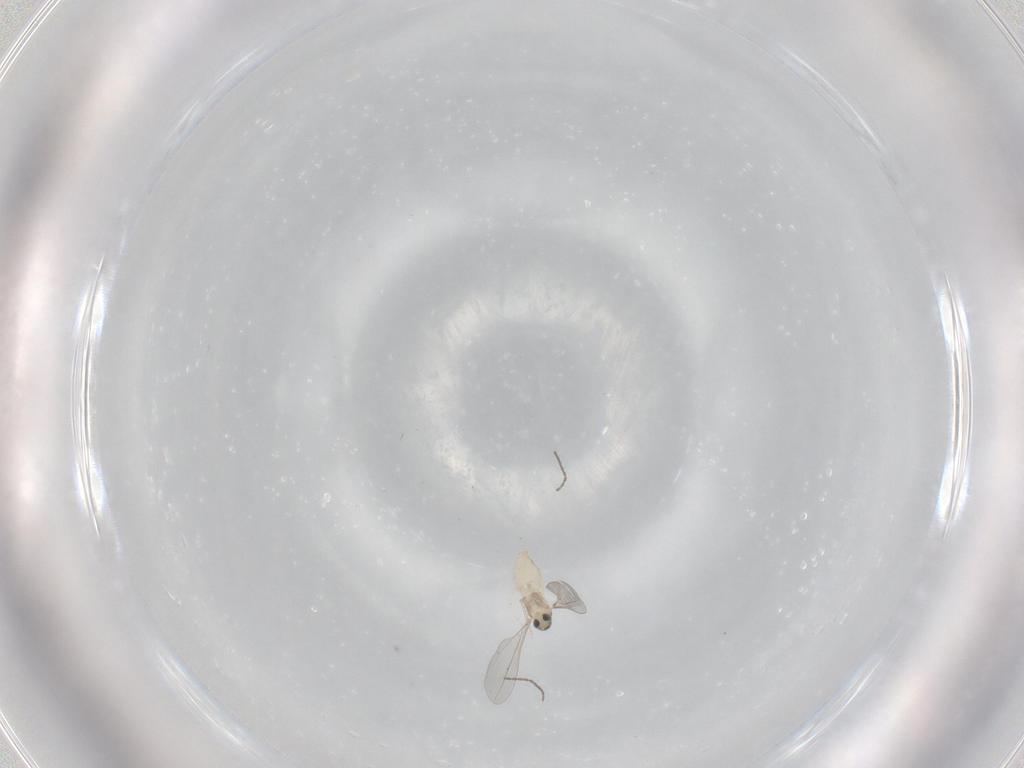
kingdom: Animalia
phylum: Arthropoda
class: Insecta
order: Diptera
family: Cecidomyiidae
